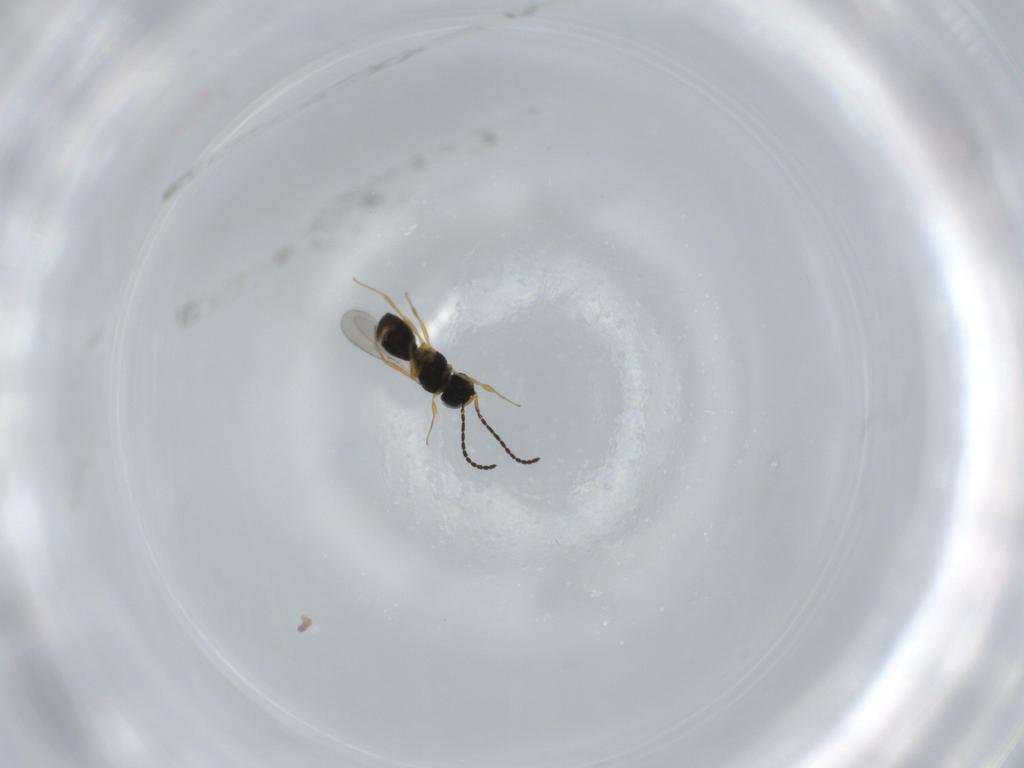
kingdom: Animalia
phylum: Arthropoda
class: Insecta
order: Hymenoptera
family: Scelionidae
